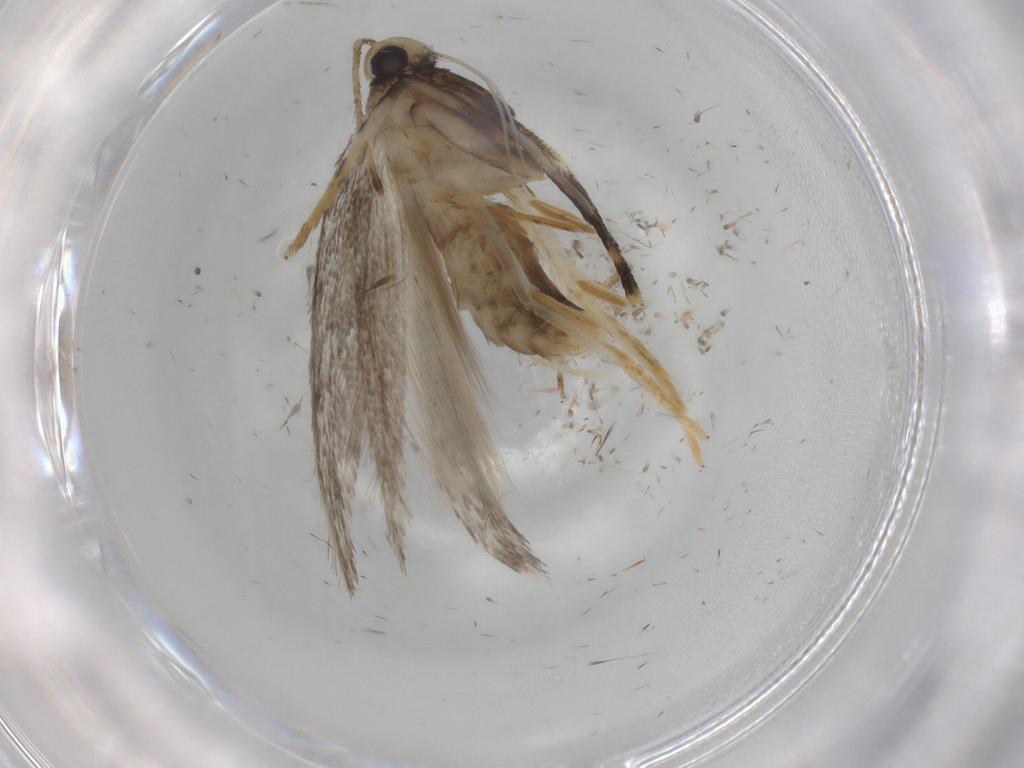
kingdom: Animalia
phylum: Arthropoda
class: Insecta
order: Lepidoptera
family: Cosmopterigidae
